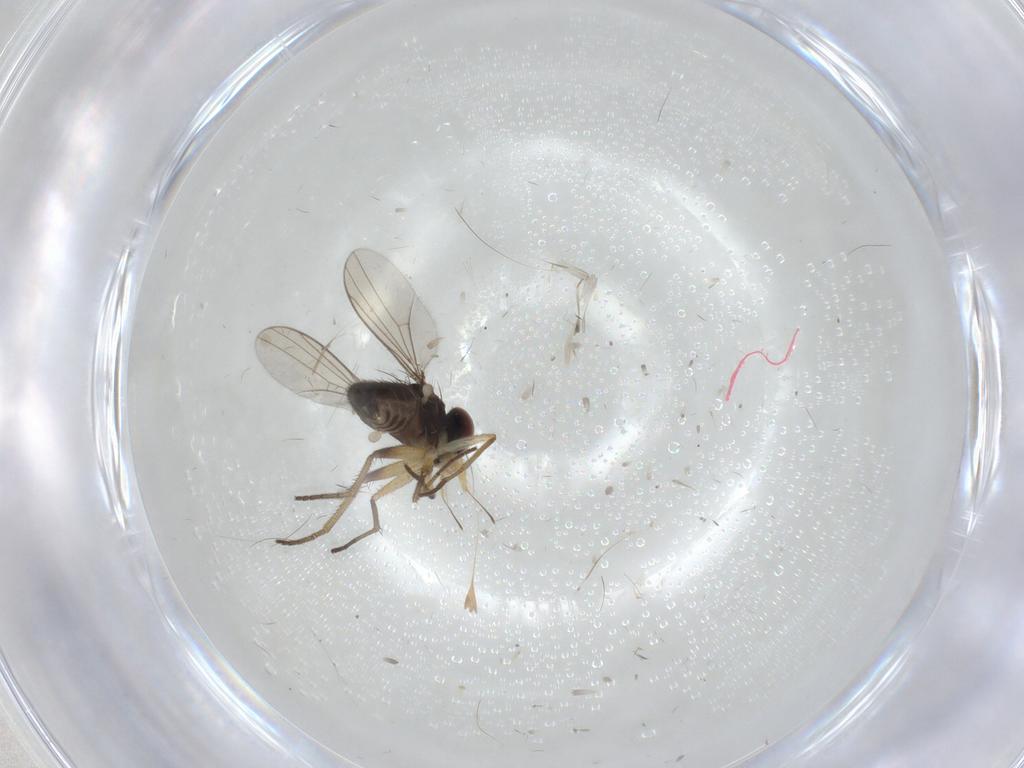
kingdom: Animalia
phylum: Arthropoda
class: Insecta
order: Diptera
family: Dolichopodidae
